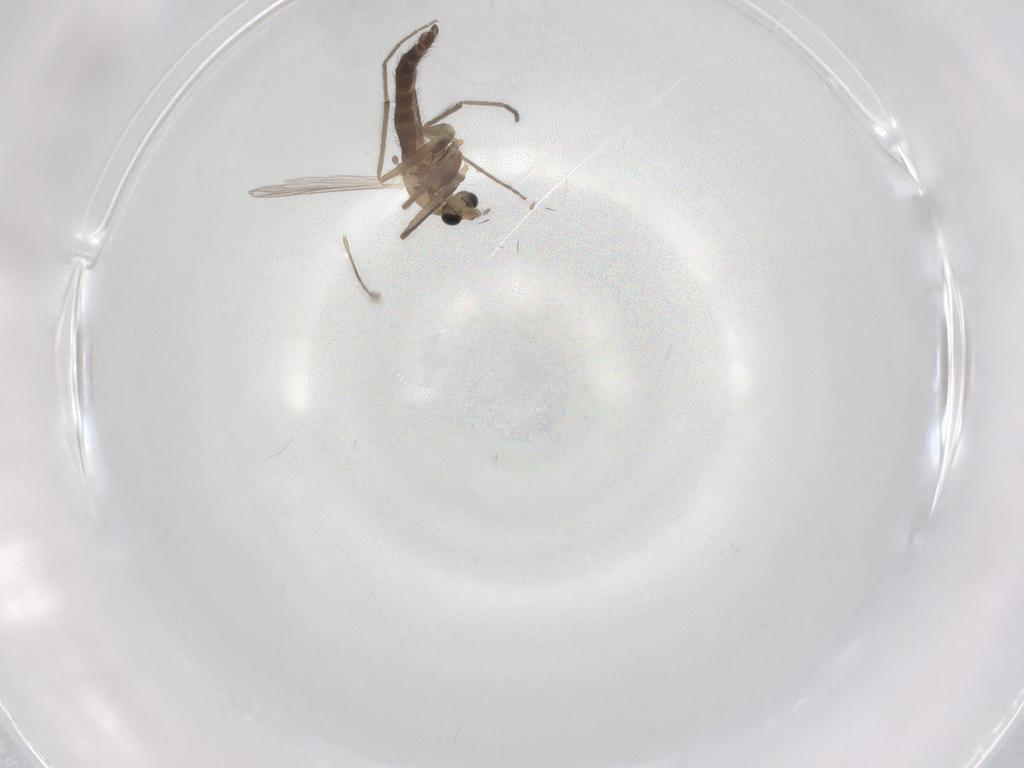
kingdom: Animalia
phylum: Arthropoda
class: Insecta
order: Diptera
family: Chironomidae
